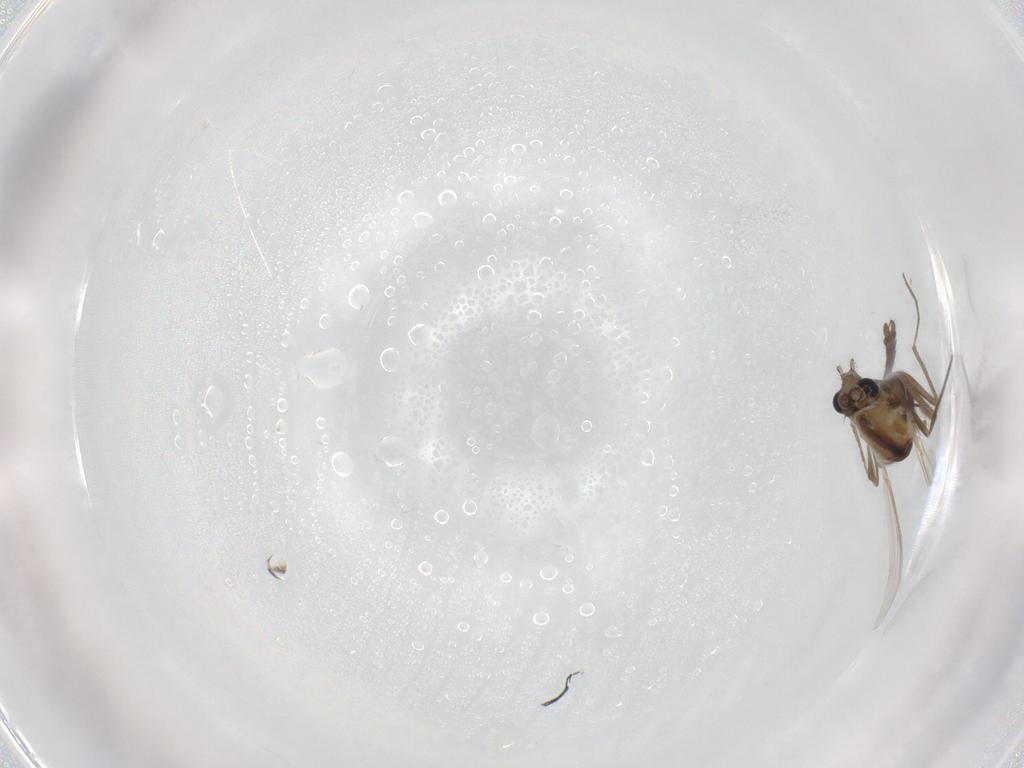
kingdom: Animalia
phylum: Arthropoda
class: Insecta
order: Diptera
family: Chironomidae
